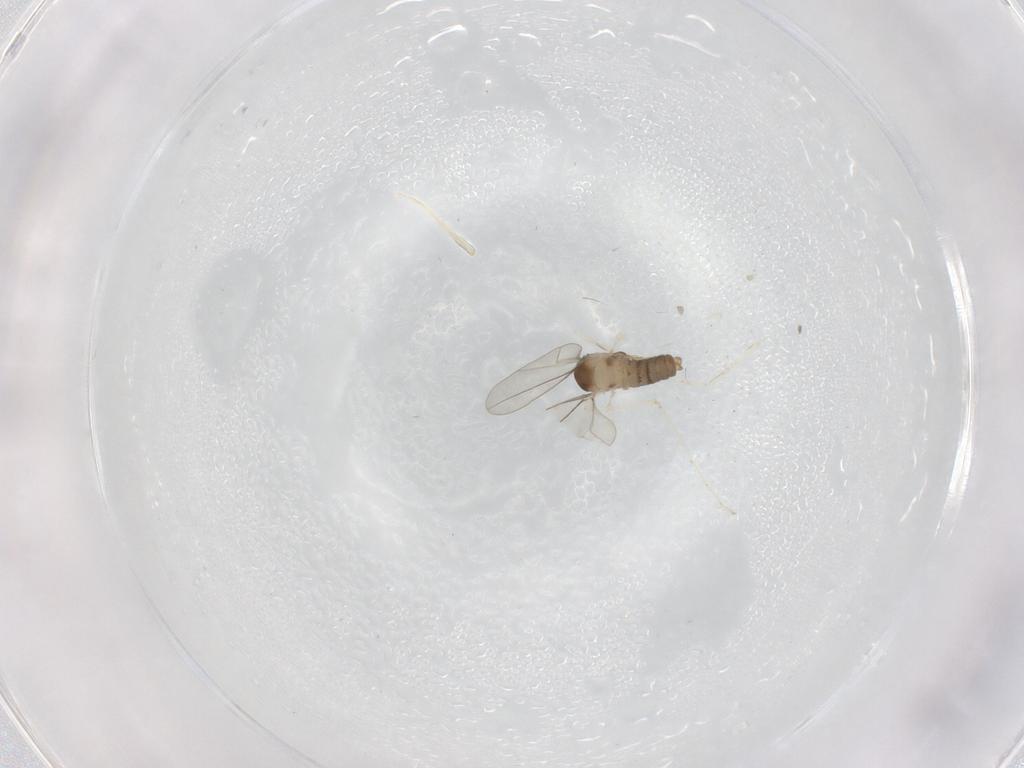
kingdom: Animalia
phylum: Arthropoda
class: Insecta
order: Diptera
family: Cecidomyiidae
